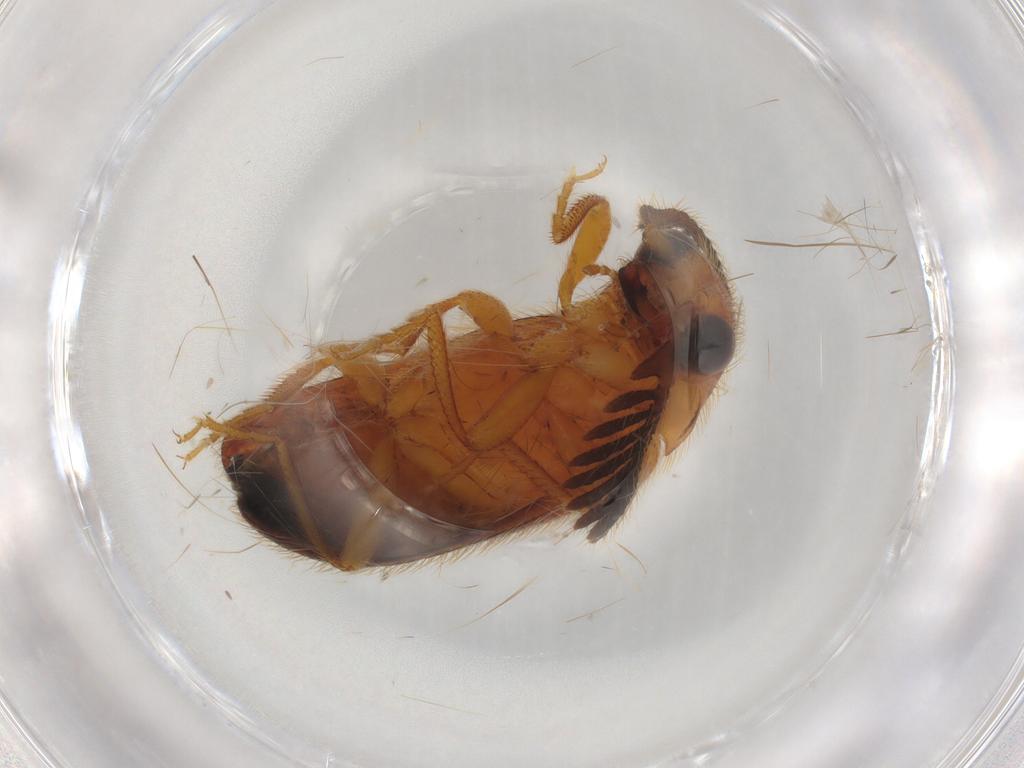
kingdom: Animalia
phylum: Arthropoda
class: Insecta
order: Coleoptera
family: Elateridae
